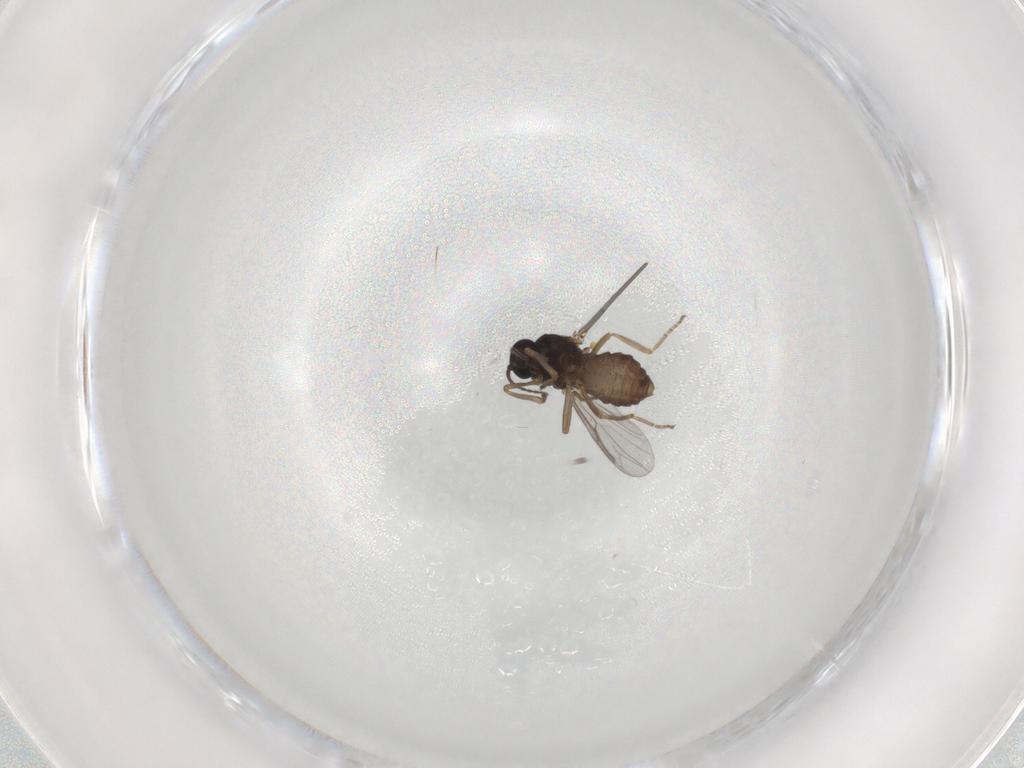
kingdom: Animalia
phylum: Arthropoda
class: Insecta
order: Diptera
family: Ceratopogonidae
